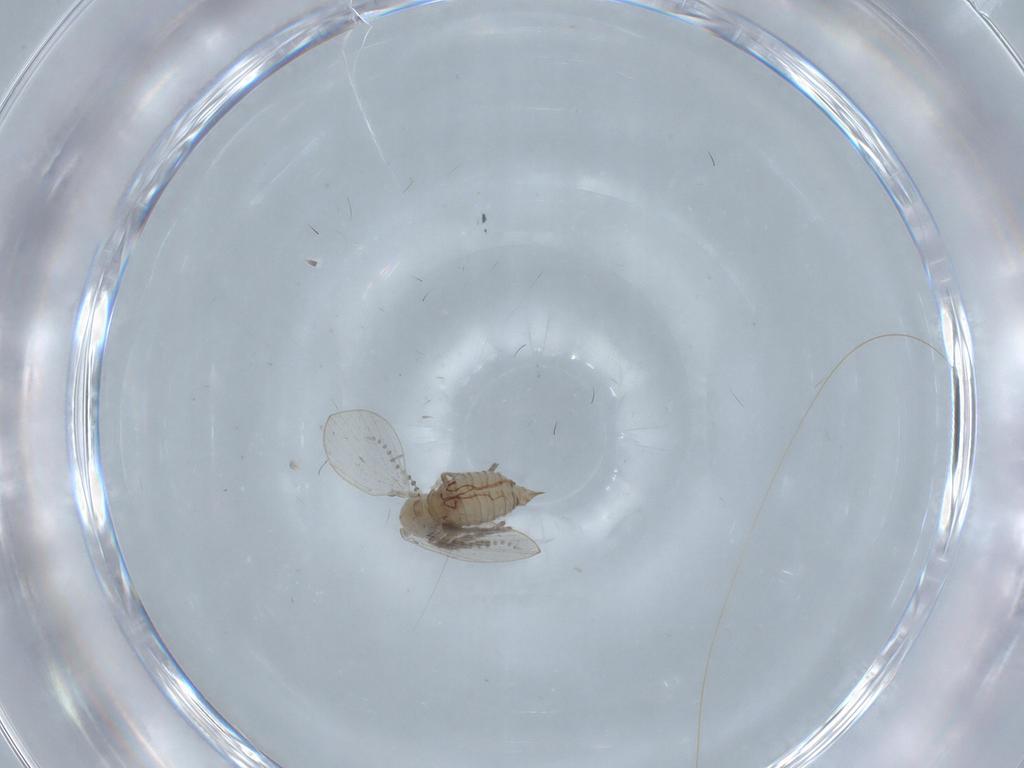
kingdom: Animalia
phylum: Arthropoda
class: Insecta
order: Diptera
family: Psychodidae
